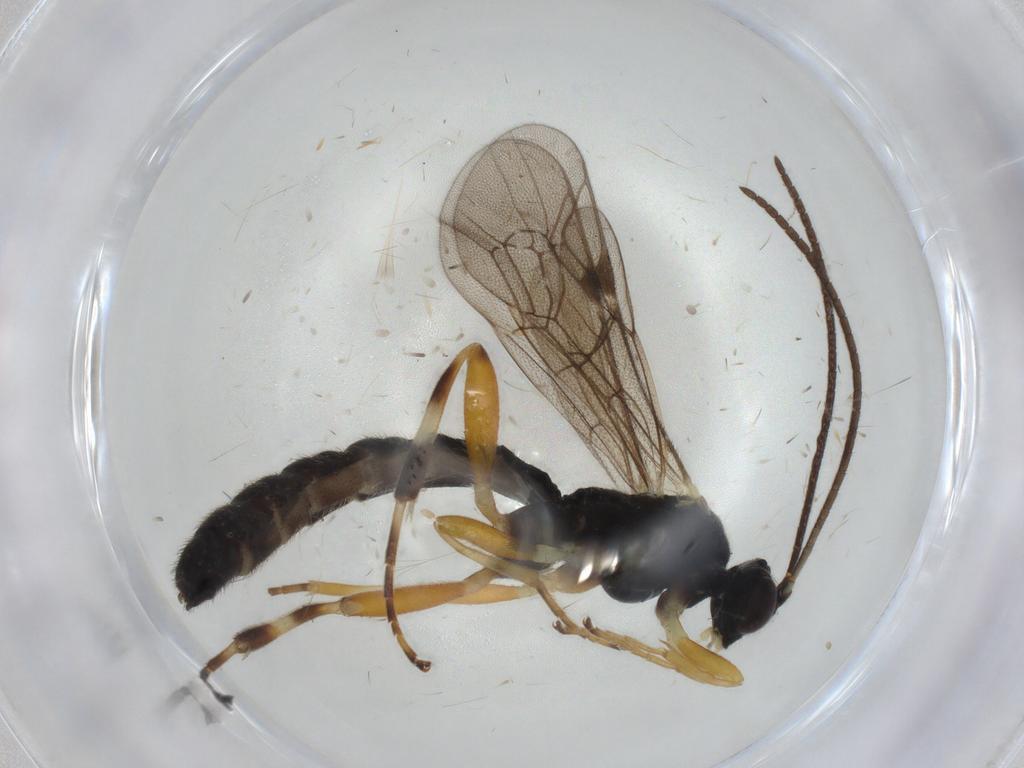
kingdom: Animalia
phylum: Arthropoda
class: Insecta
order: Hymenoptera
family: Ichneumonidae
